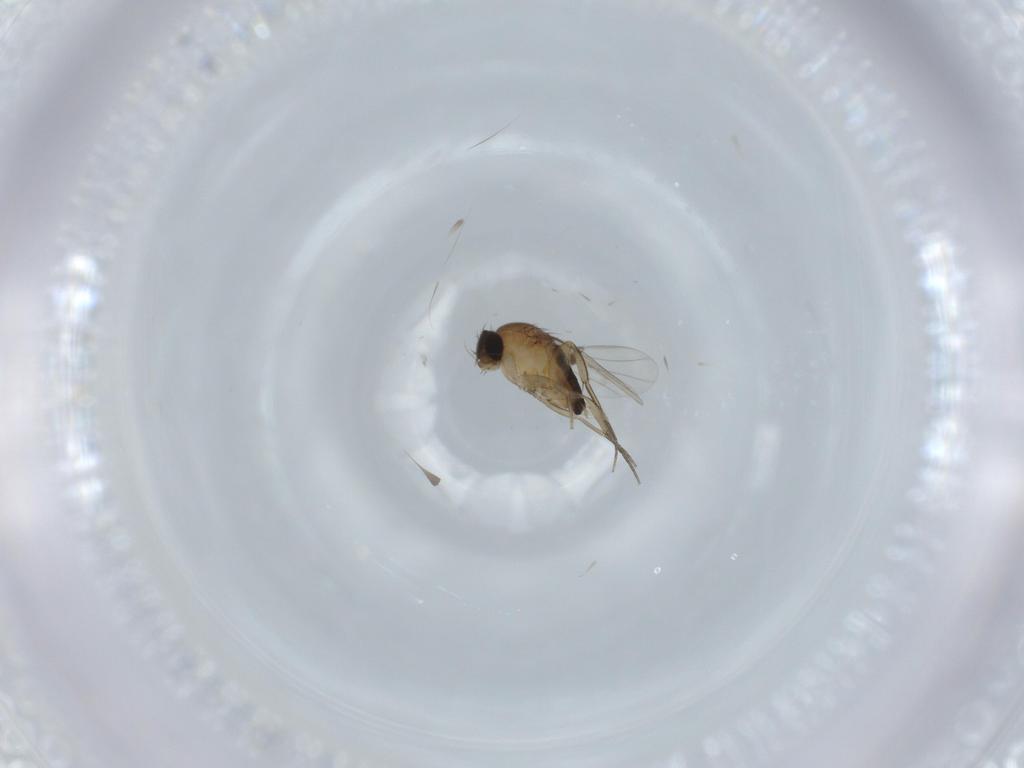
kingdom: Animalia
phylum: Arthropoda
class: Insecta
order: Diptera
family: Phoridae
